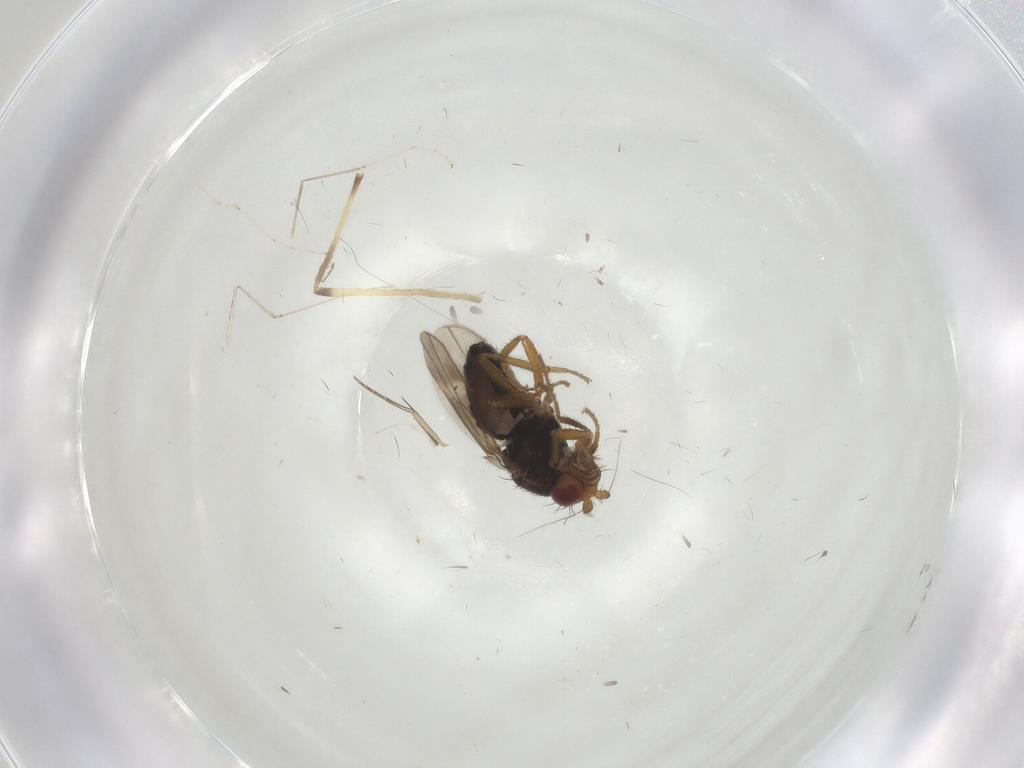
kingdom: Animalia
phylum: Arthropoda
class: Insecta
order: Diptera
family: Sphaeroceridae
